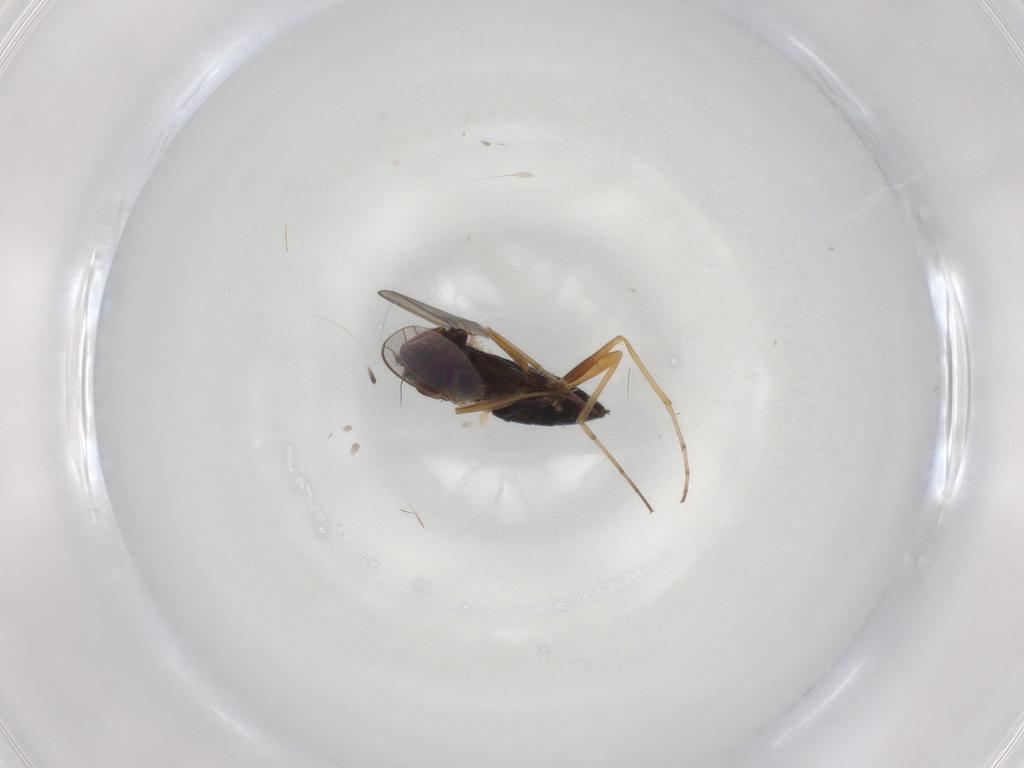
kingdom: Animalia
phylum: Arthropoda
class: Insecta
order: Diptera
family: Dolichopodidae
